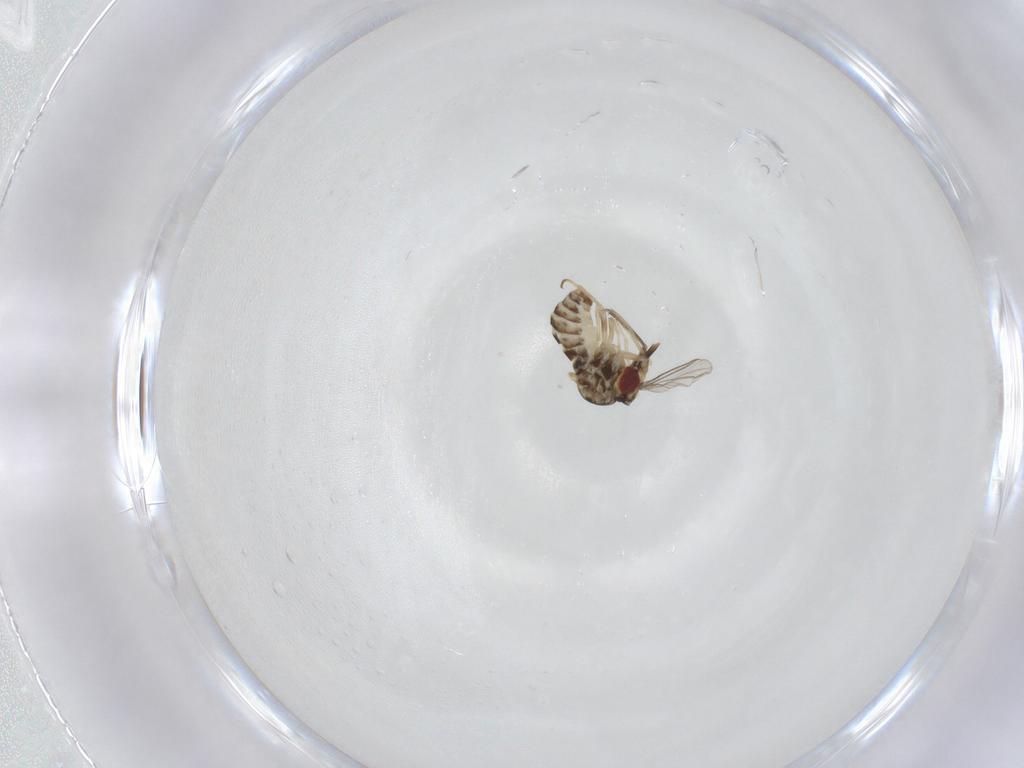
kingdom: Animalia
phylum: Arthropoda
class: Insecta
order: Diptera
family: Bombyliidae
